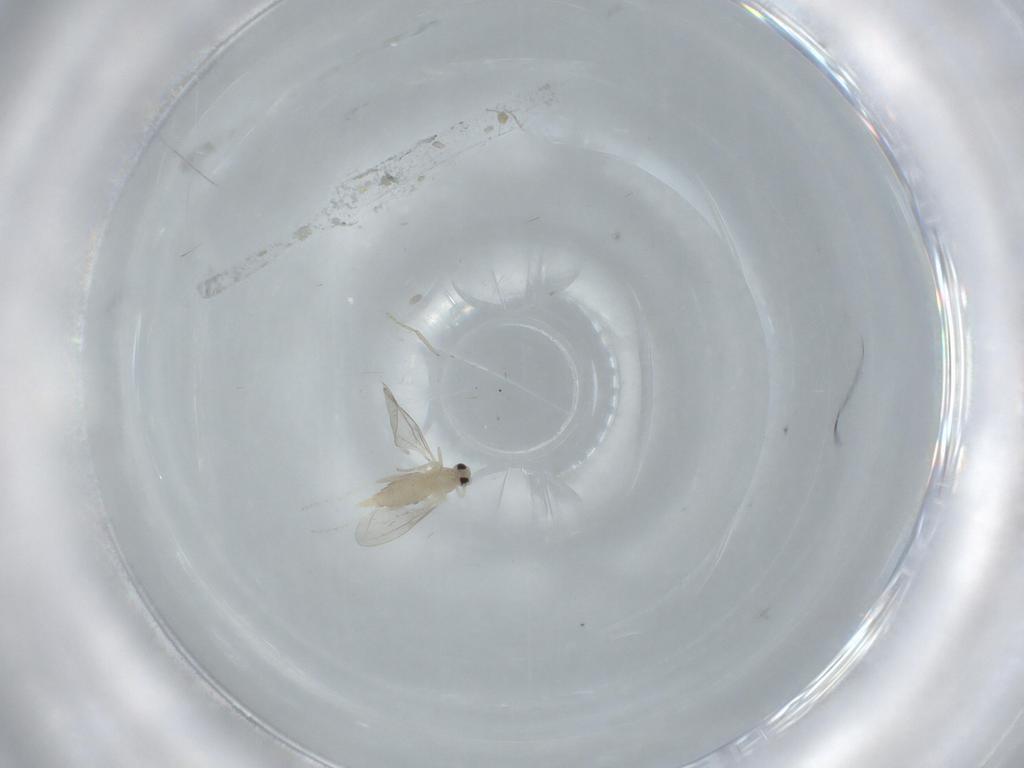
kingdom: Animalia
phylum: Arthropoda
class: Insecta
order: Diptera
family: Cecidomyiidae
